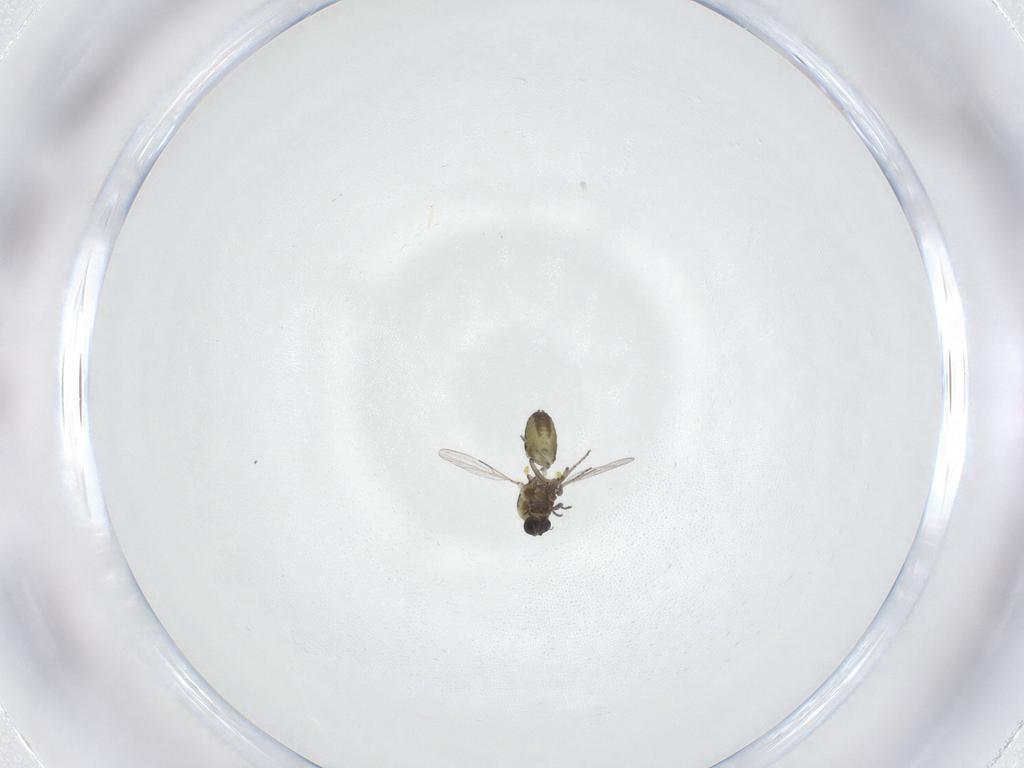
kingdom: Animalia
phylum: Arthropoda
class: Insecta
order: Diptera
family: Ceratopogonidae
